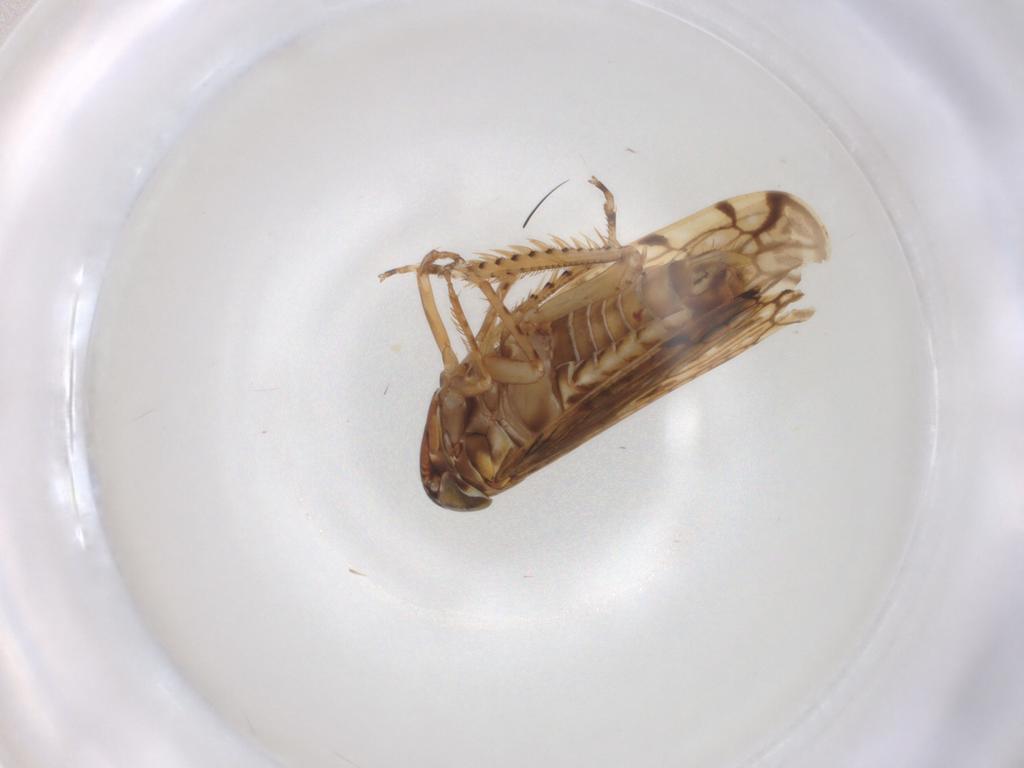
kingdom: Animalia
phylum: Arthropoda
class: Insecta
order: Hemiptera
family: Cicadellidae
